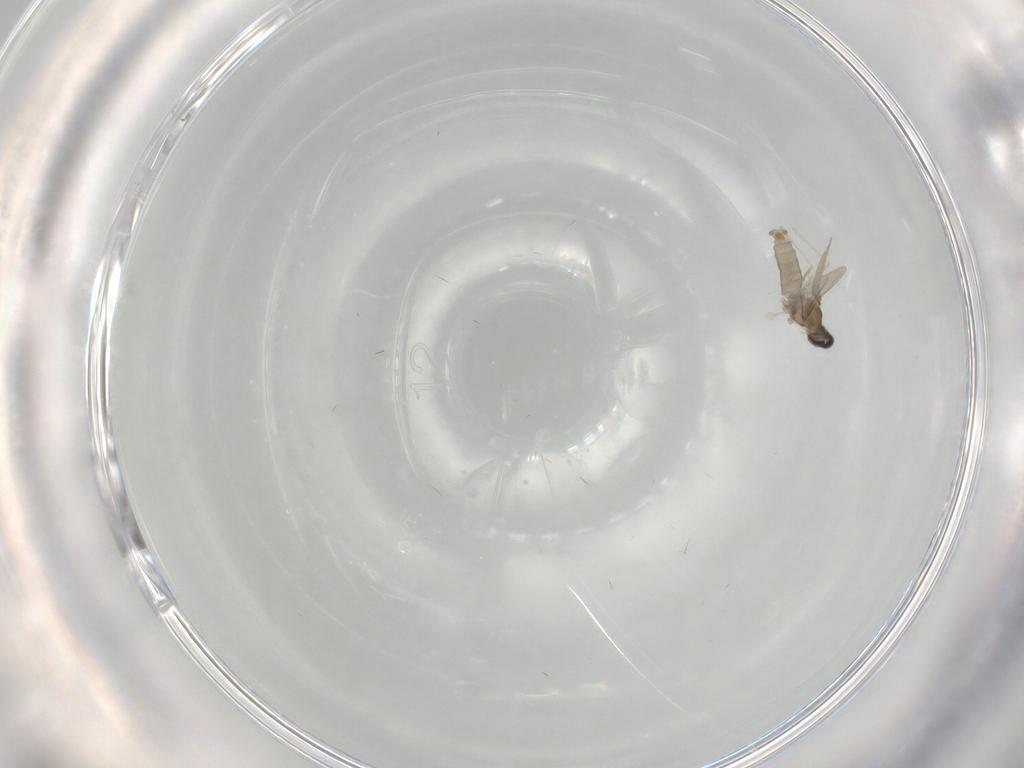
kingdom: Animalia
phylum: Arthropoda
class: Insecta
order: Diptera
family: Cecidomyiidae
